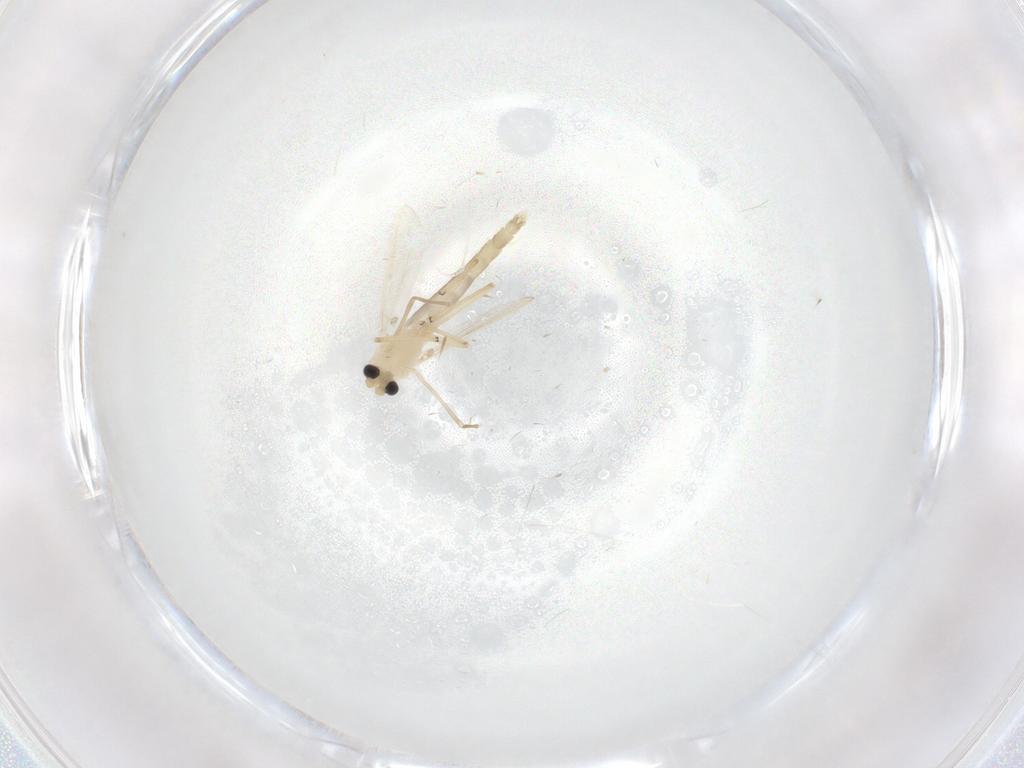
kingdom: Animalia
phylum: Arthropoda
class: Insecta
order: Diptera
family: Chironomidae
